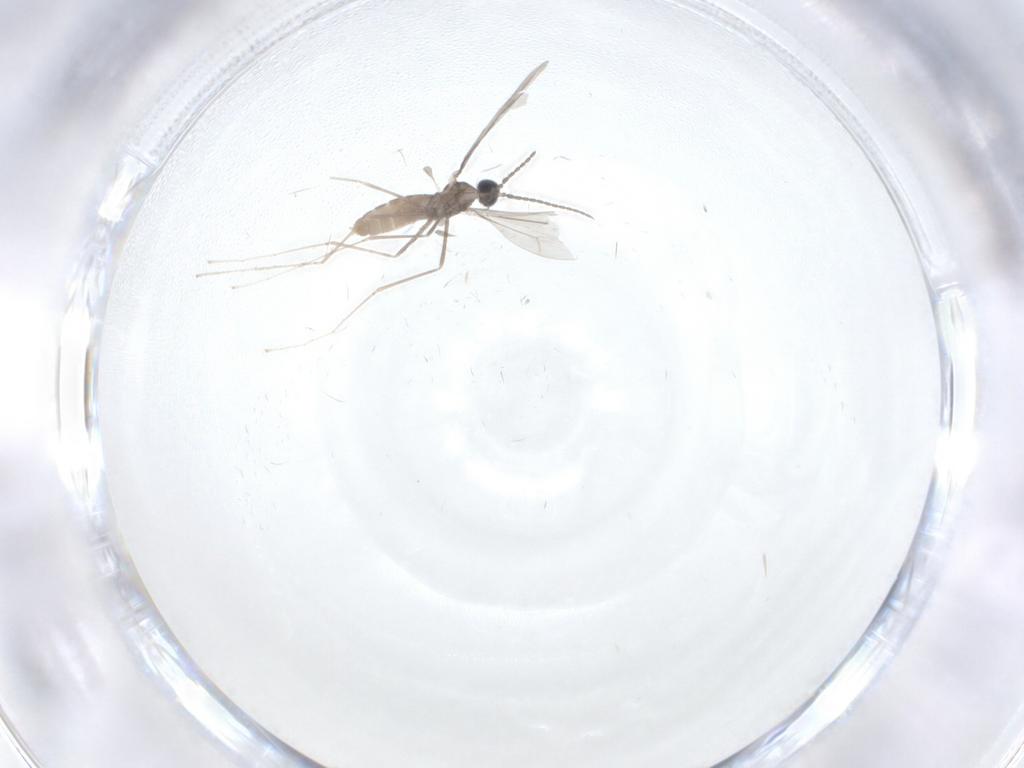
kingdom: Animalia
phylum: Arthropoda
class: Insecta
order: Diptera
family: Cecidomyiidae
